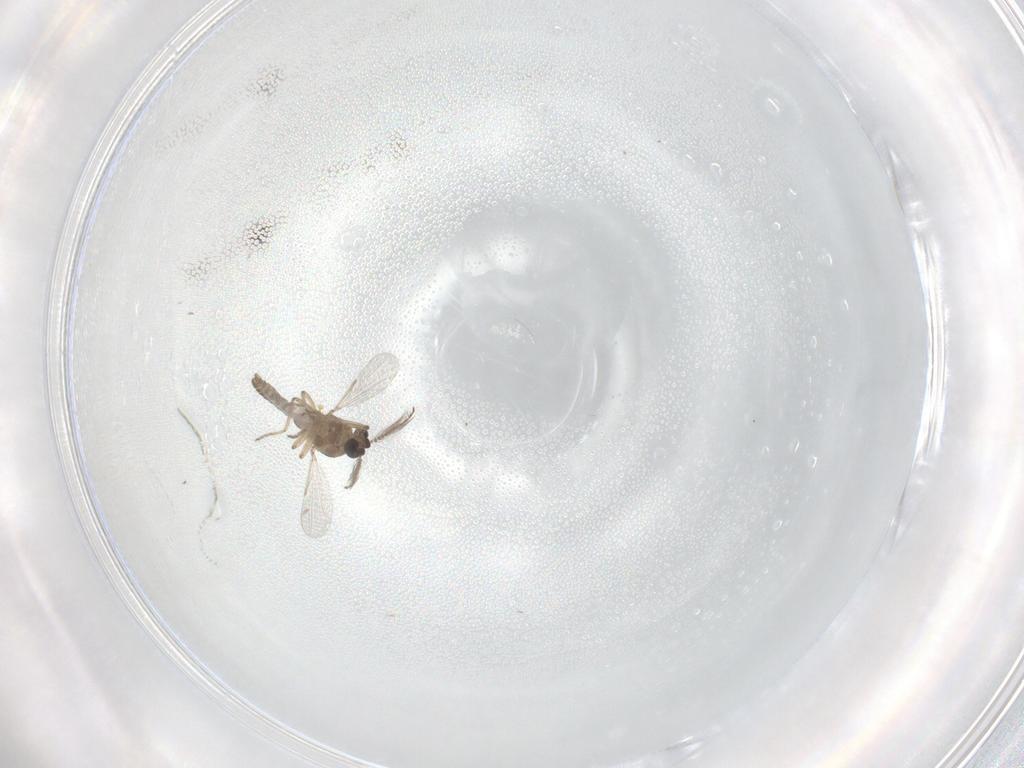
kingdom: Animalia
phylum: Arthropoda
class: Insecta
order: Diptera
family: Ceratopogonidae
